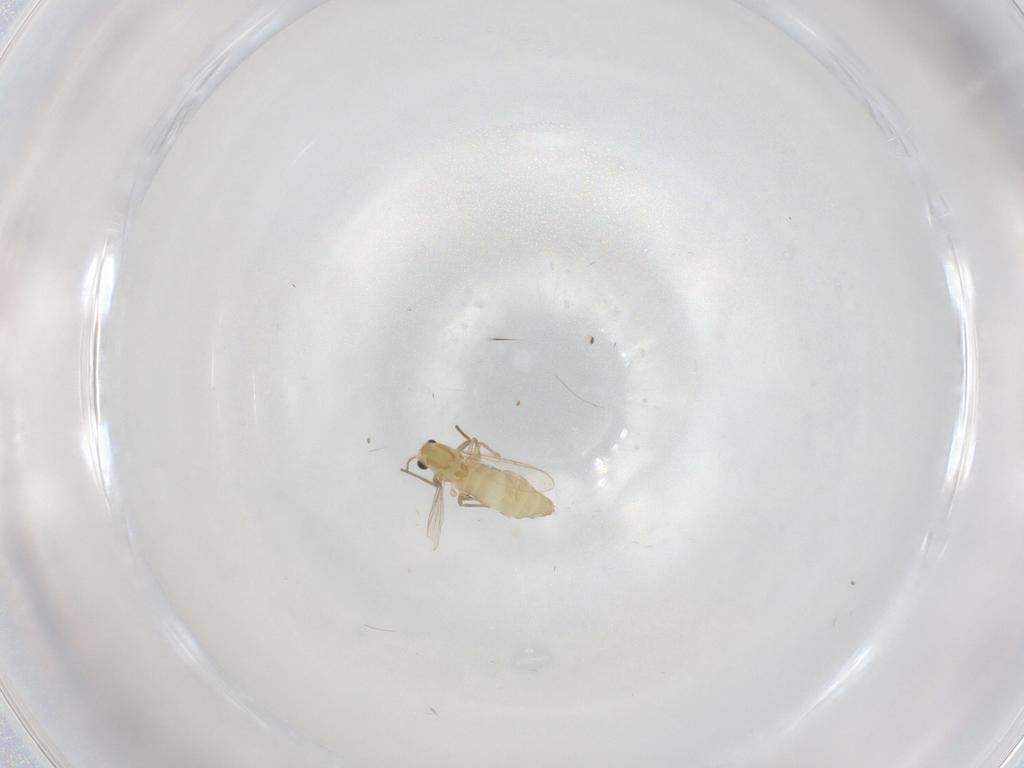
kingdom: Animalia
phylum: Arthropoda
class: Insecta
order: Diptera
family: Chironomidae
